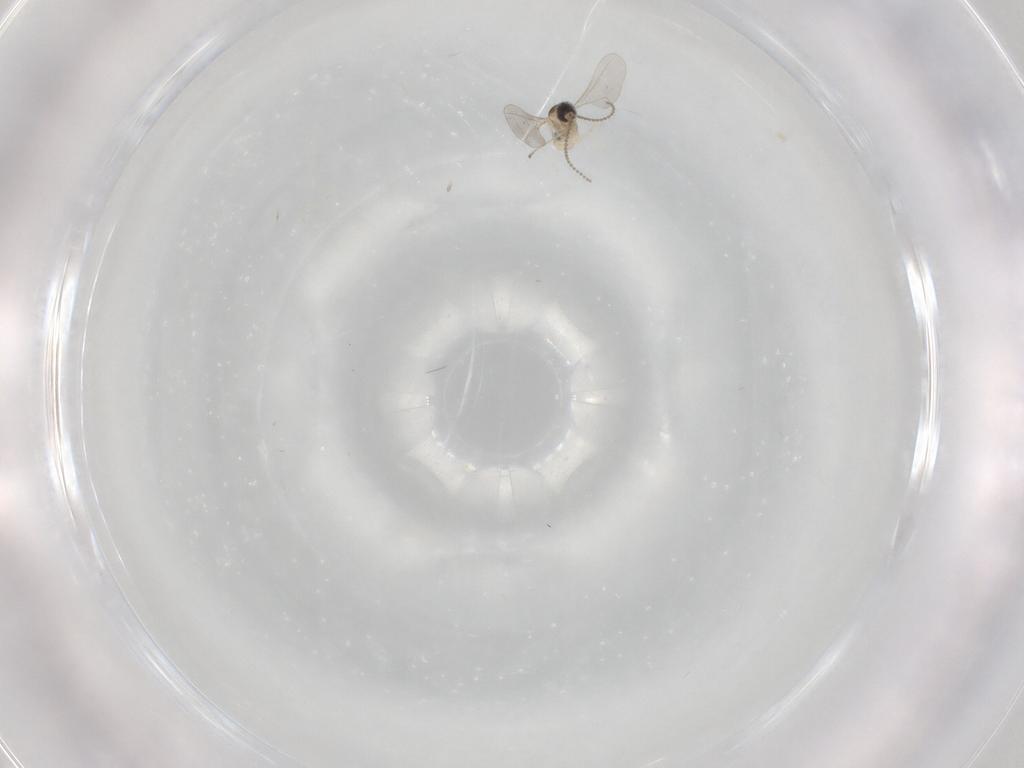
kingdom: Animalia
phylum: Arthropoda
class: Insecta
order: Diptera
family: Cecidomyiidae
